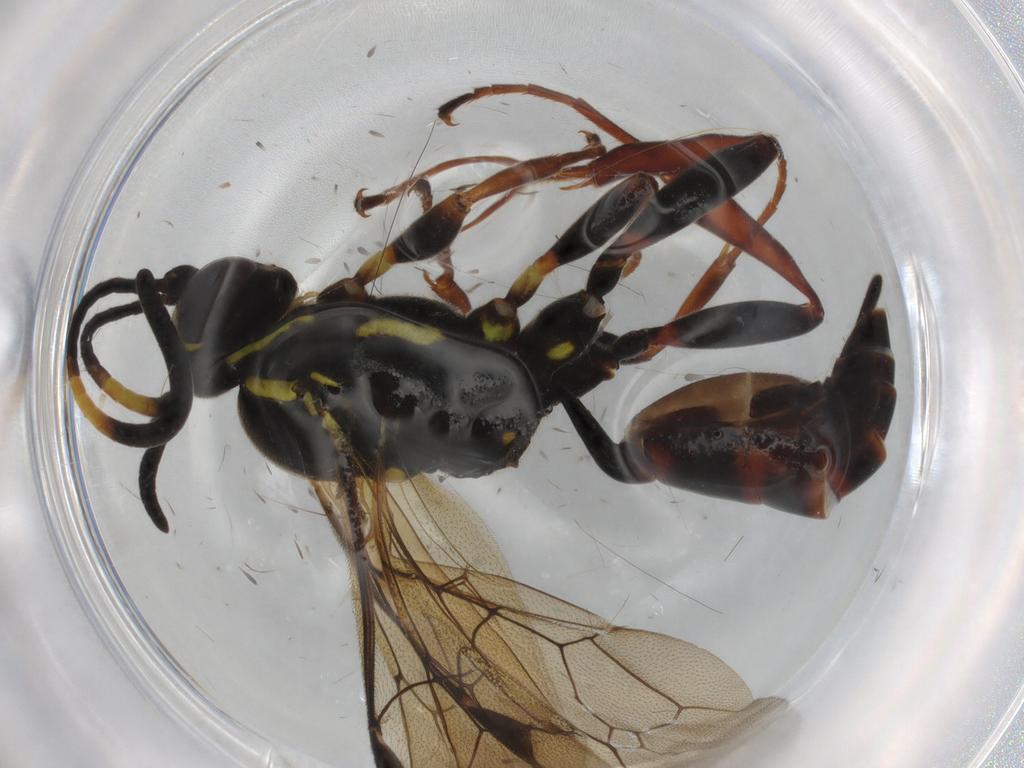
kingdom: Animalia
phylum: Arthropoda
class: Insecta
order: Hymenoptera
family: Ichneumonidae
